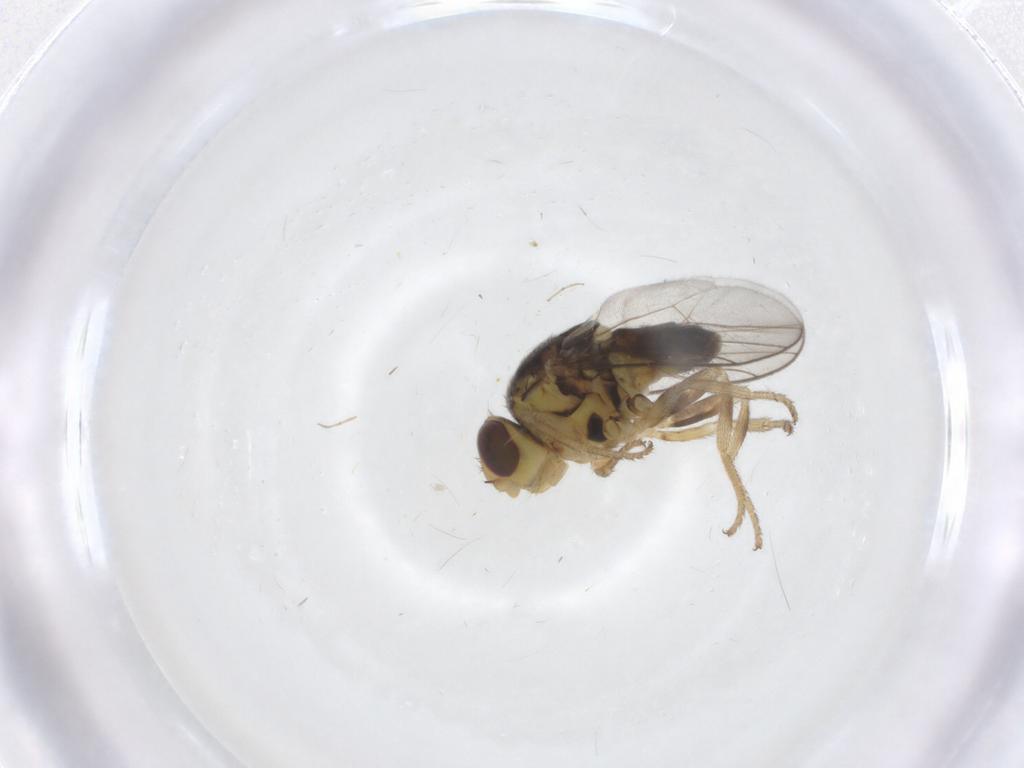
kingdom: Animalia
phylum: Arthropoda
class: Insecta
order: Diptera
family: Chloropidae
